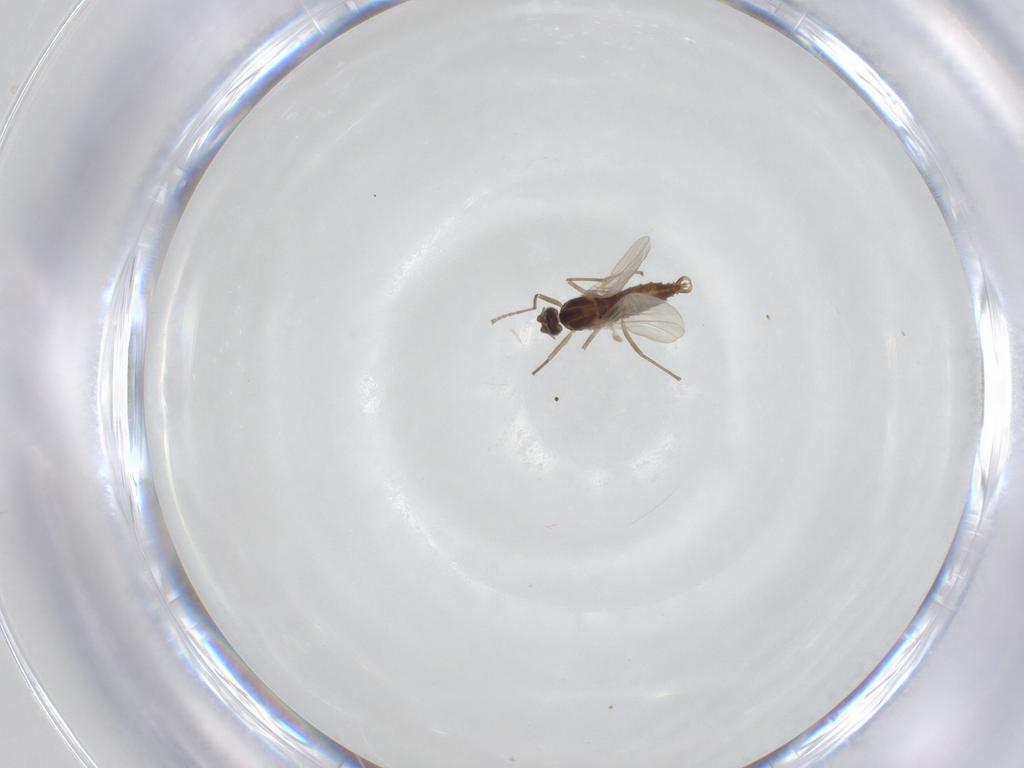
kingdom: Animalia
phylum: Arthropoda
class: Insecta
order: Diptera
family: Cecidomyiidae
